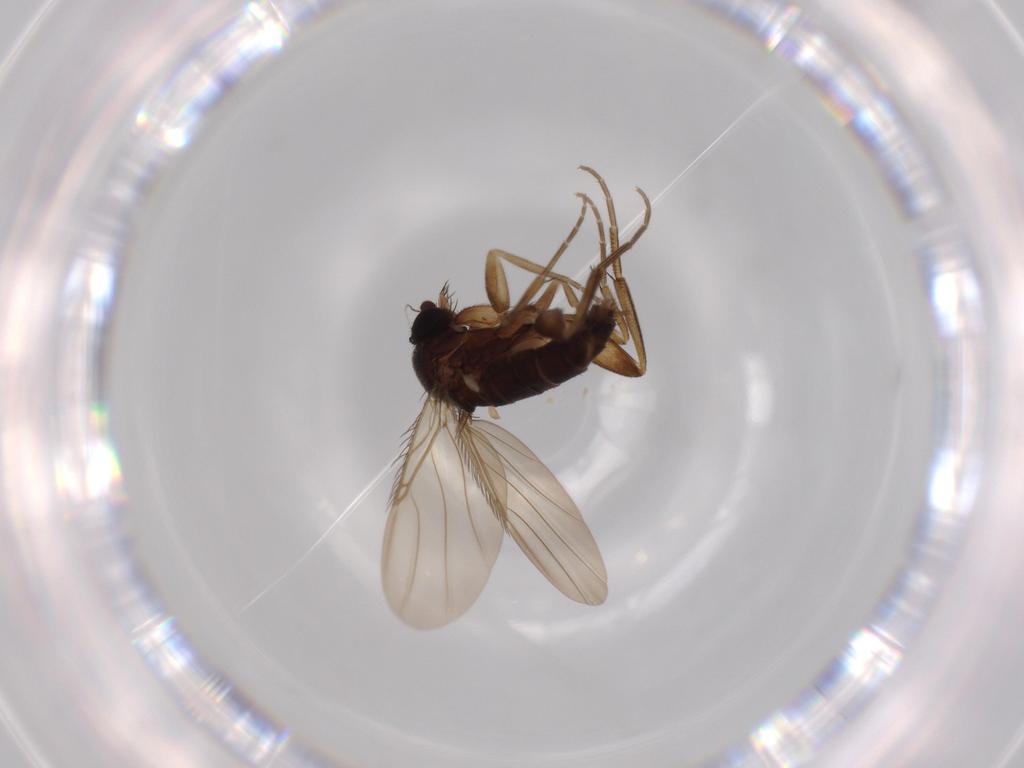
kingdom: Animalia
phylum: Arthropoda
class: Insecta
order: Diptera
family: Phoridae
